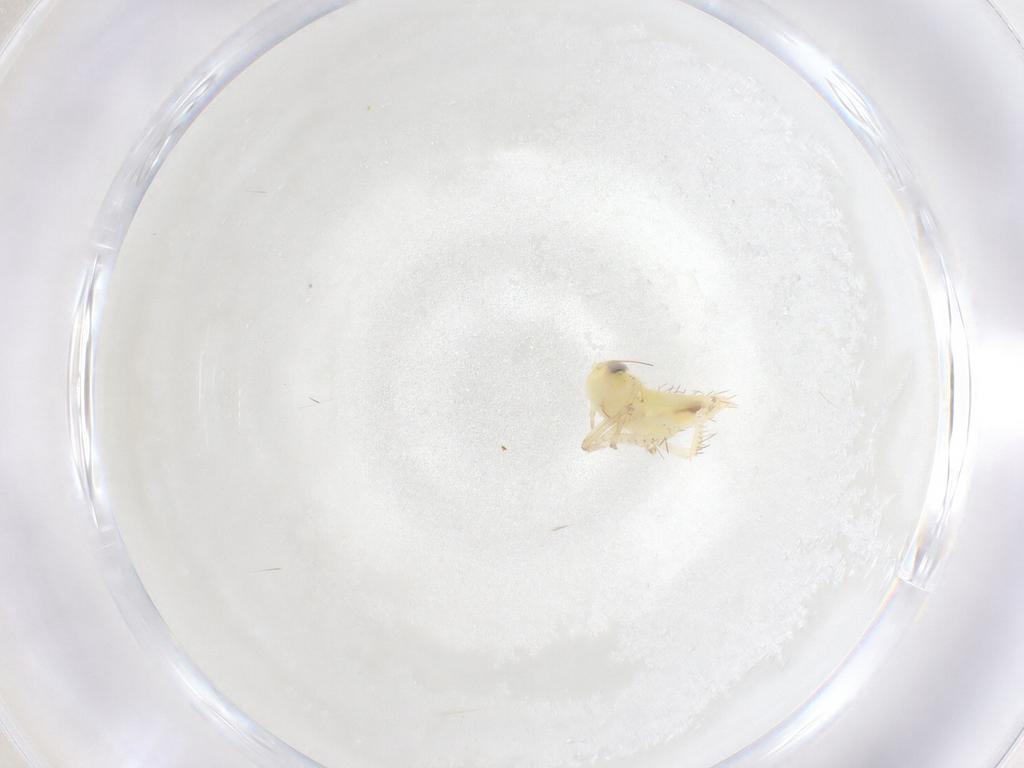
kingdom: Animalia
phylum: Arthropoda
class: Insecta
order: Hemiptera
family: Cicadellidae
